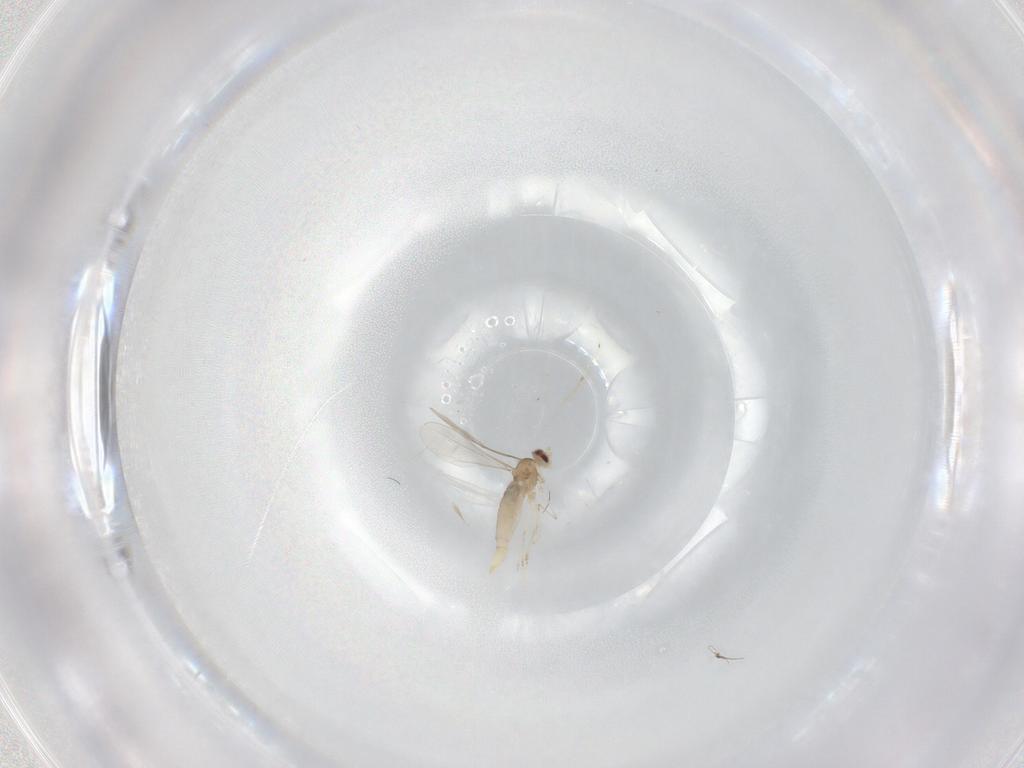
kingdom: Animalia
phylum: Arthropoda
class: Insecta
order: Diptera
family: Cecidomyiidae
